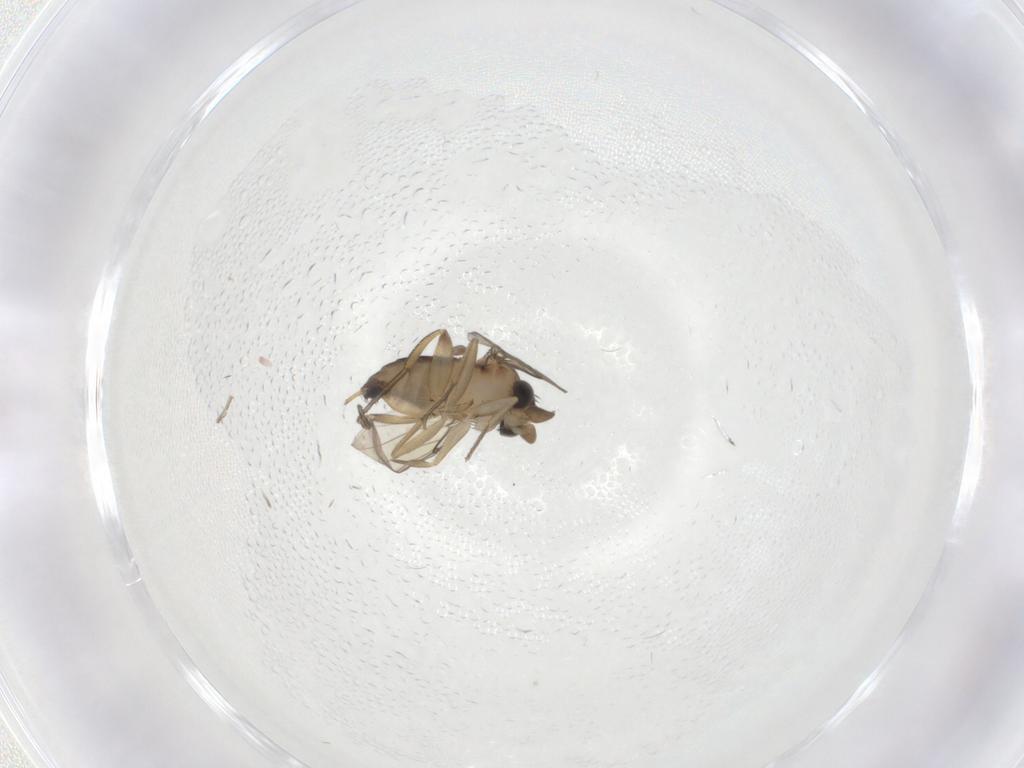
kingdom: Animalia
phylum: Arthropoda
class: Insecta
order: Diptera
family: Phoridae
